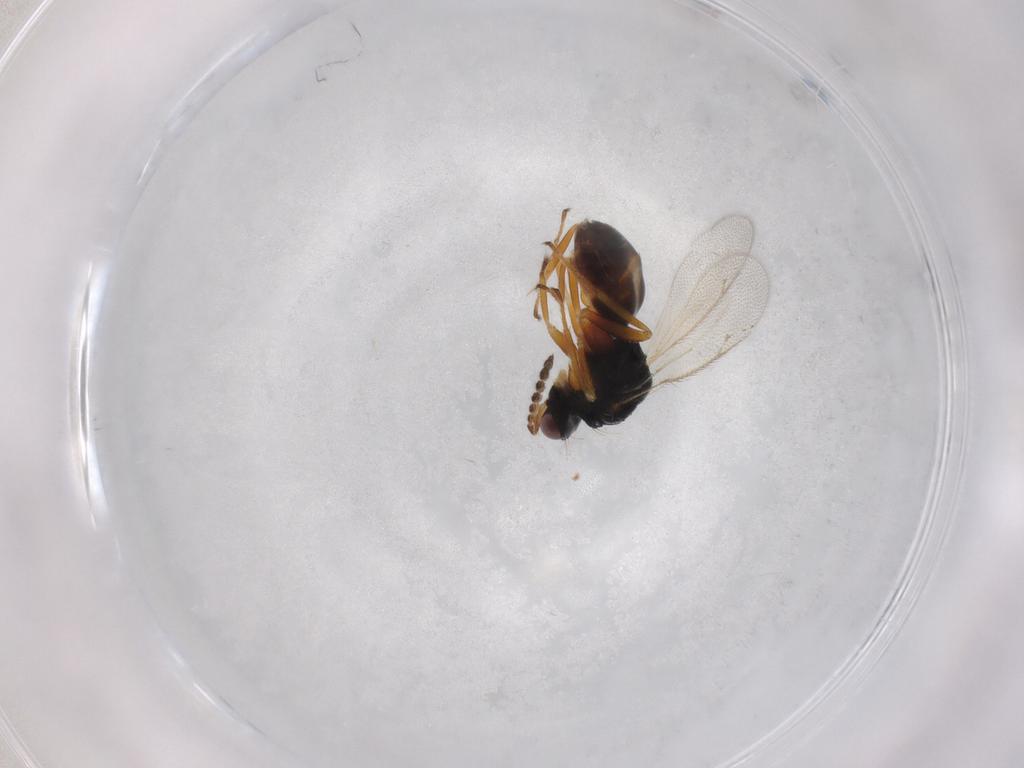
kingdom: Animalia
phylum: Arthropoda
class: Insecta
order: Hymenoptera
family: Eulophidae
